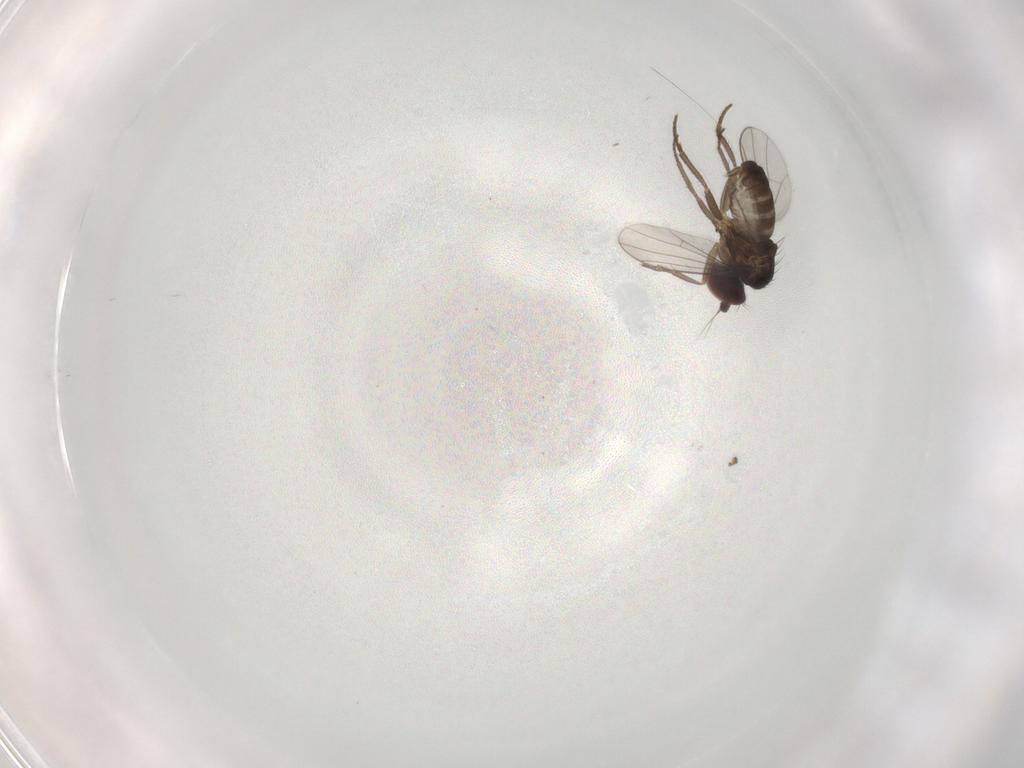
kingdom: Animalia
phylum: Arthropoda
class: Insecta
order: Diptera
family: Dolichopodidae
